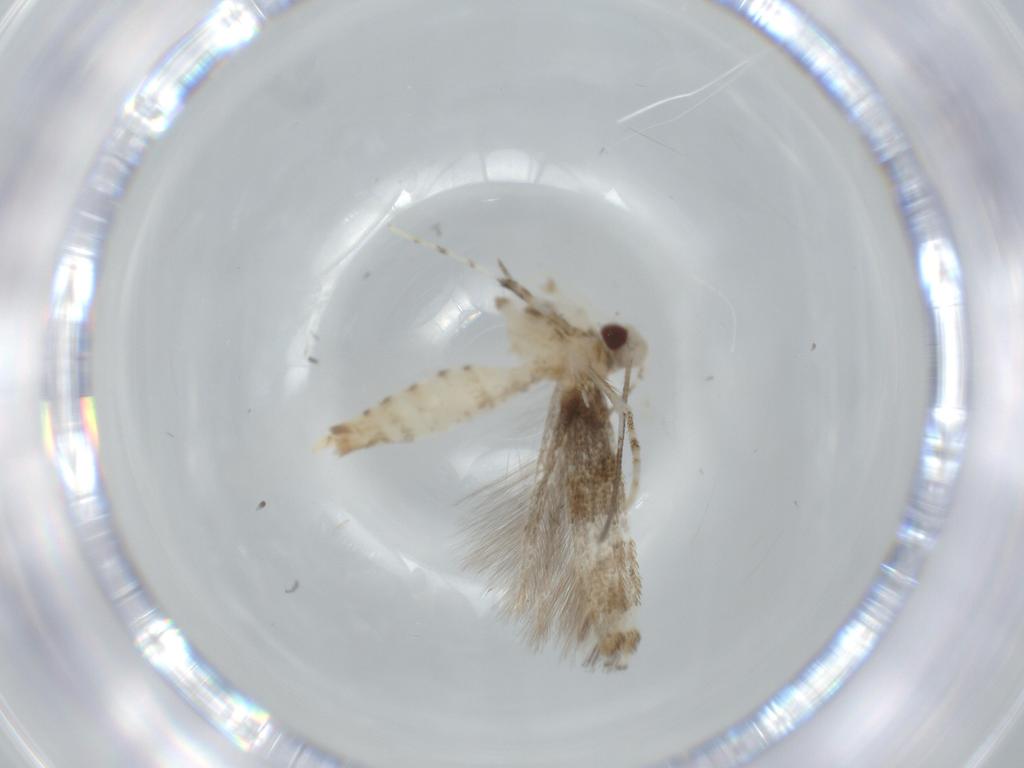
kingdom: Animalia
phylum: Arthropoda
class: Insecta
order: Lepidoptera
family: Gracillariidae
